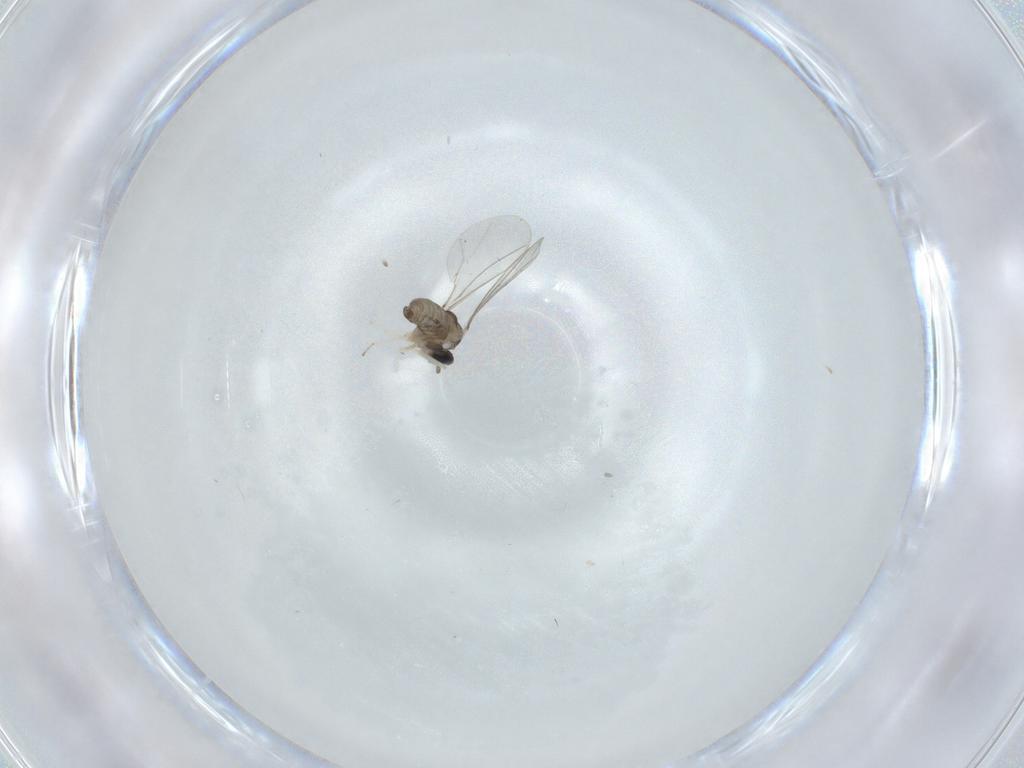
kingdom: Animalia
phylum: Arthropoda
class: Insecta
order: Diptera
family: Cecidomyiidae
